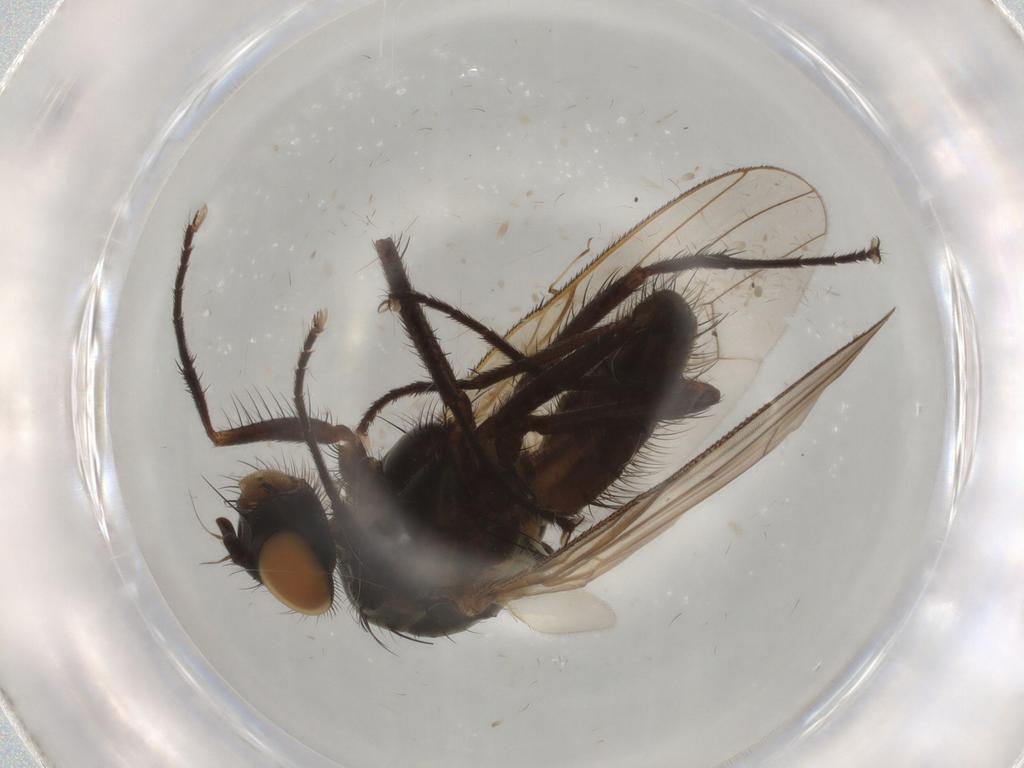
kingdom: Animalia
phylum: Arthropoda
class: Insecta
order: Diptera
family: Anthomyiidae
